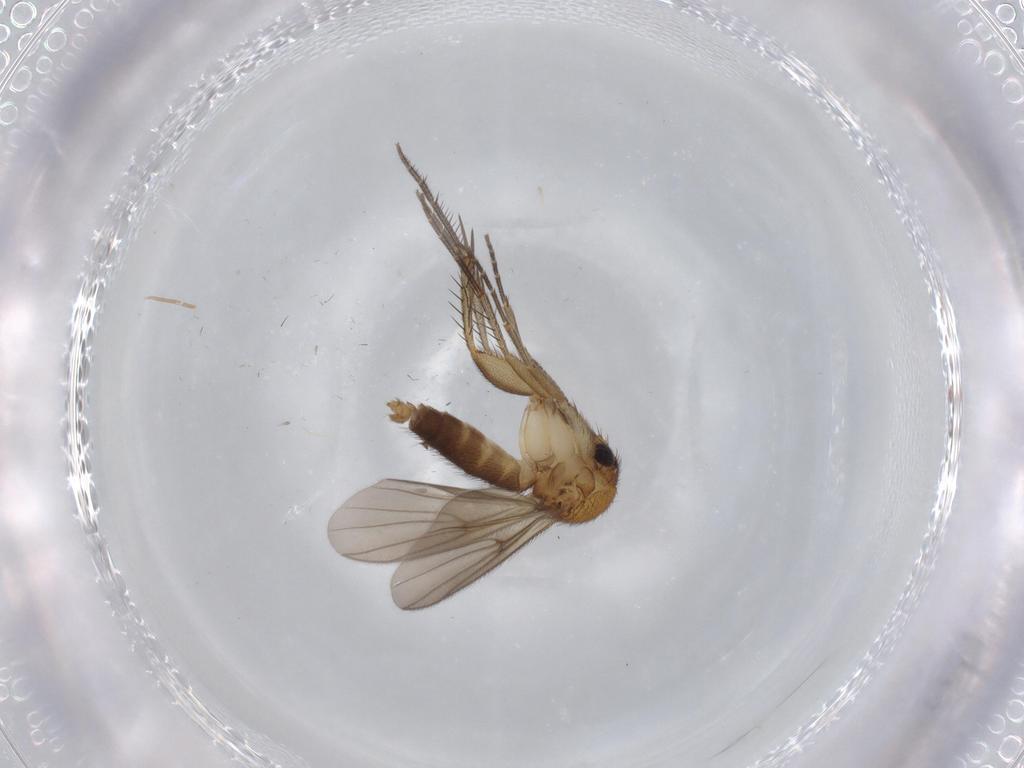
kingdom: Animalia
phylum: Arthropoda
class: Insecta
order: Diptera
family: Mycetophilidae
